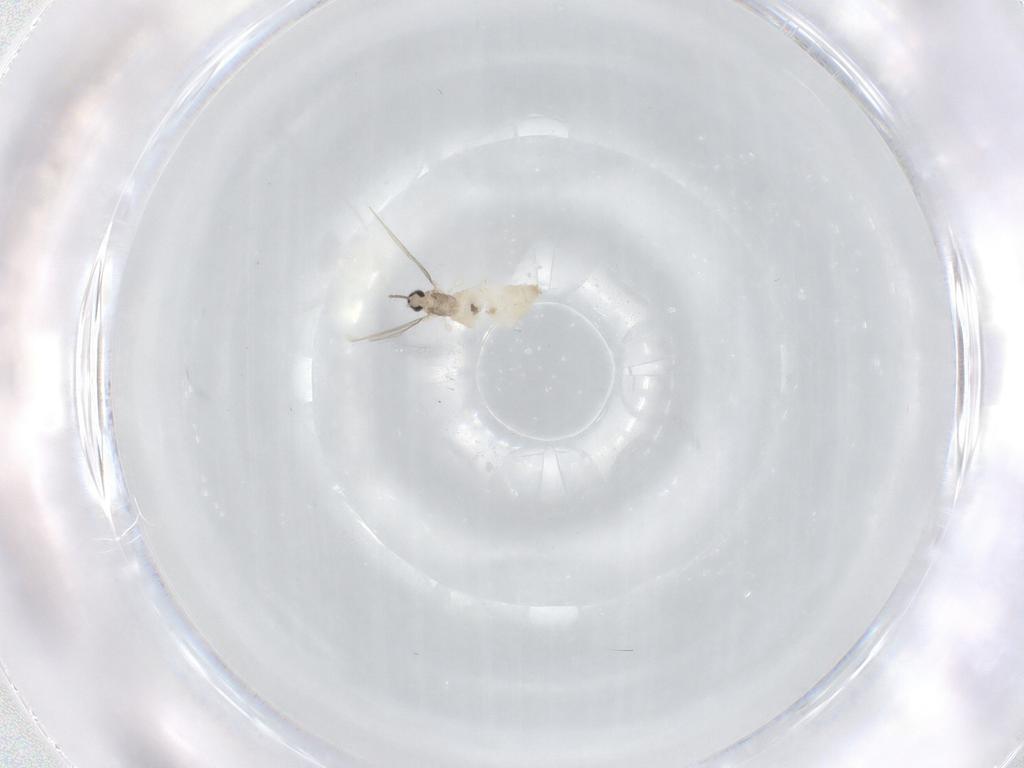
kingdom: Animalia
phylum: Arthropoda
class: Insecta
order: Diptera
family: Cecidomyiidae
